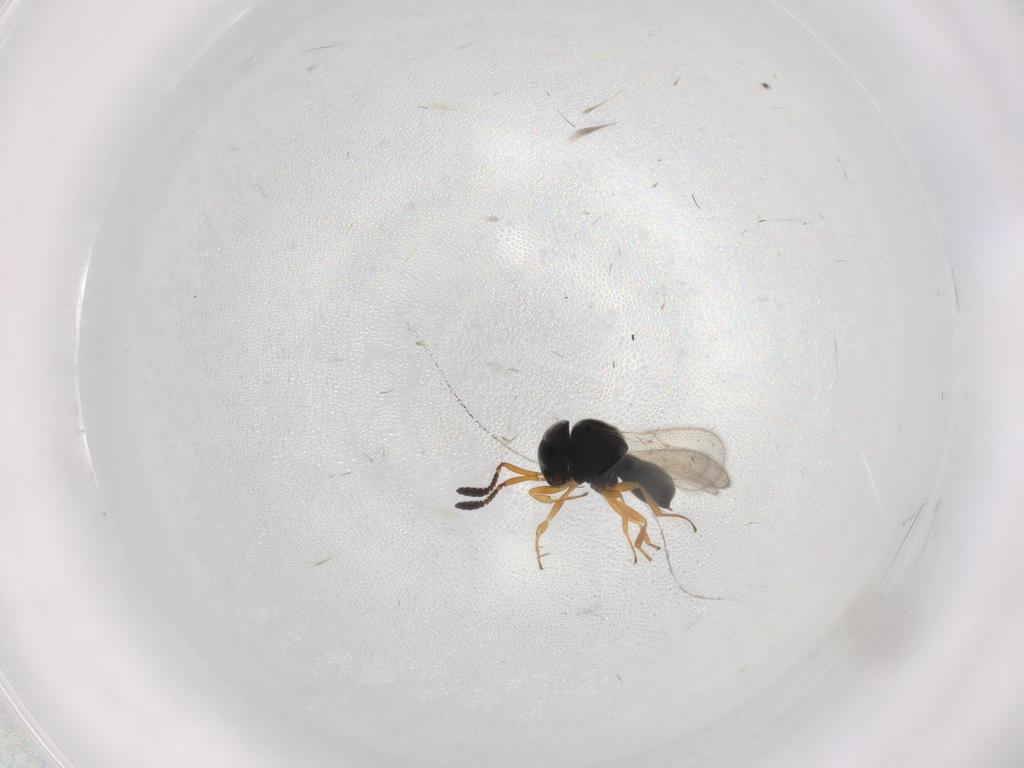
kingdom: Animalia
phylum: Arthropoda
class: Insecta
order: Hymenoptera
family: Scelionidae
